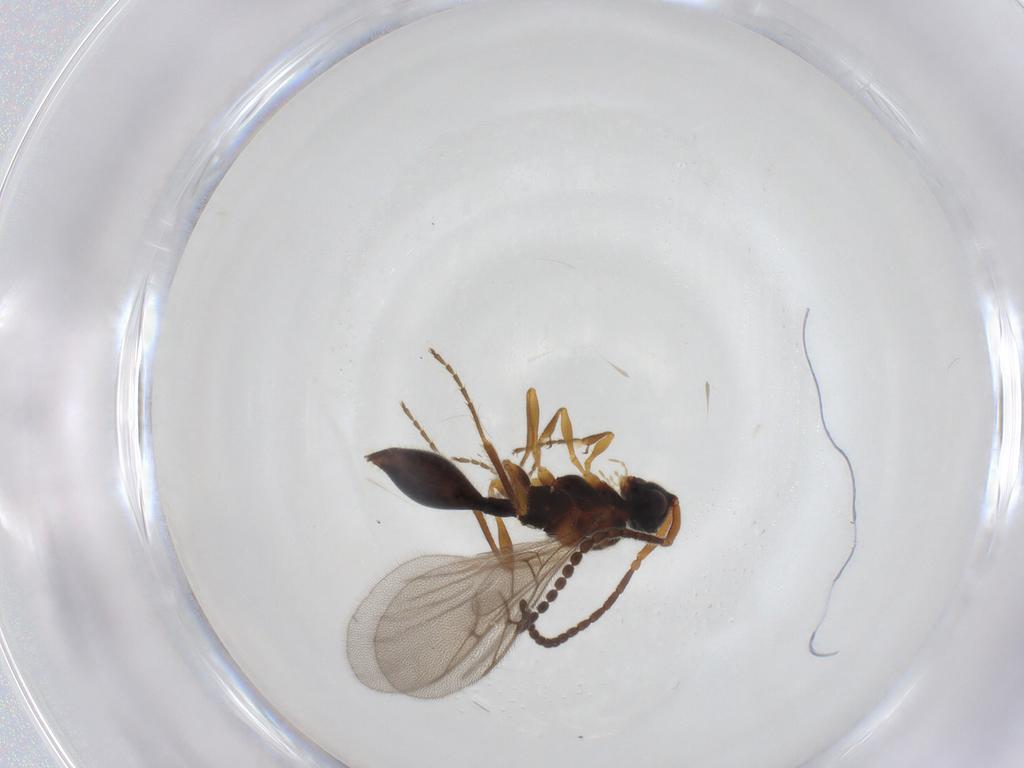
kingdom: Animalia
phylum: Arthropoda
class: Insecta
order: Hymenoptera
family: Diapriidae
